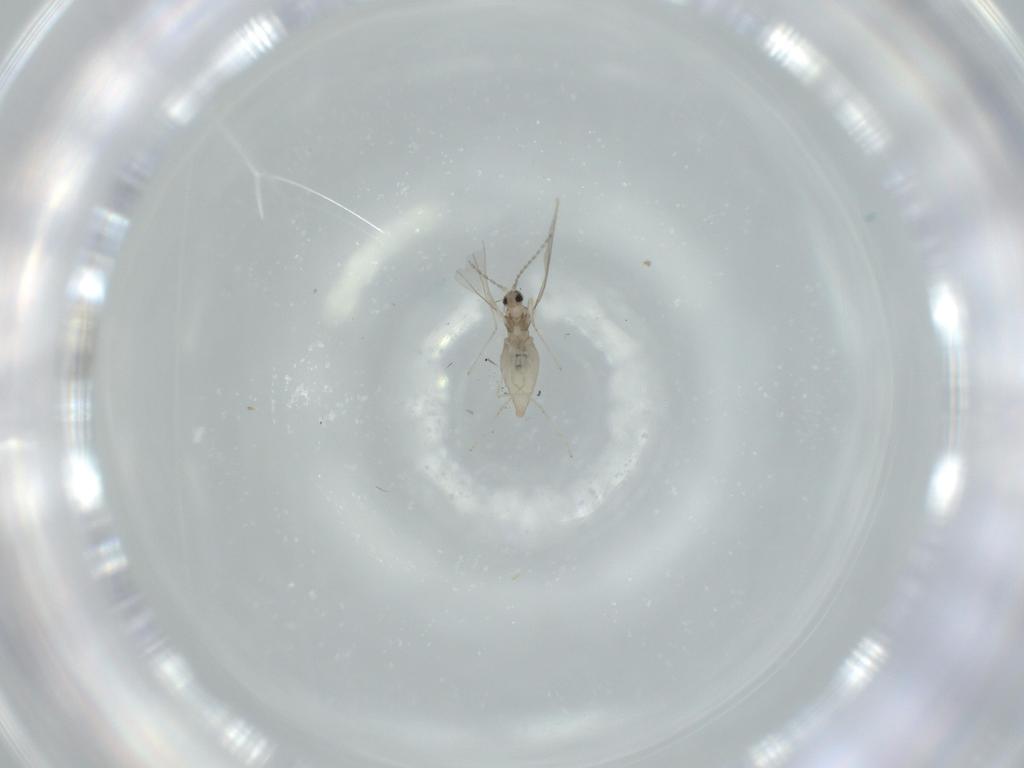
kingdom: Animalia
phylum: Arthropoda
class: Insecta
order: Diptera
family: Cecidomyiidae
